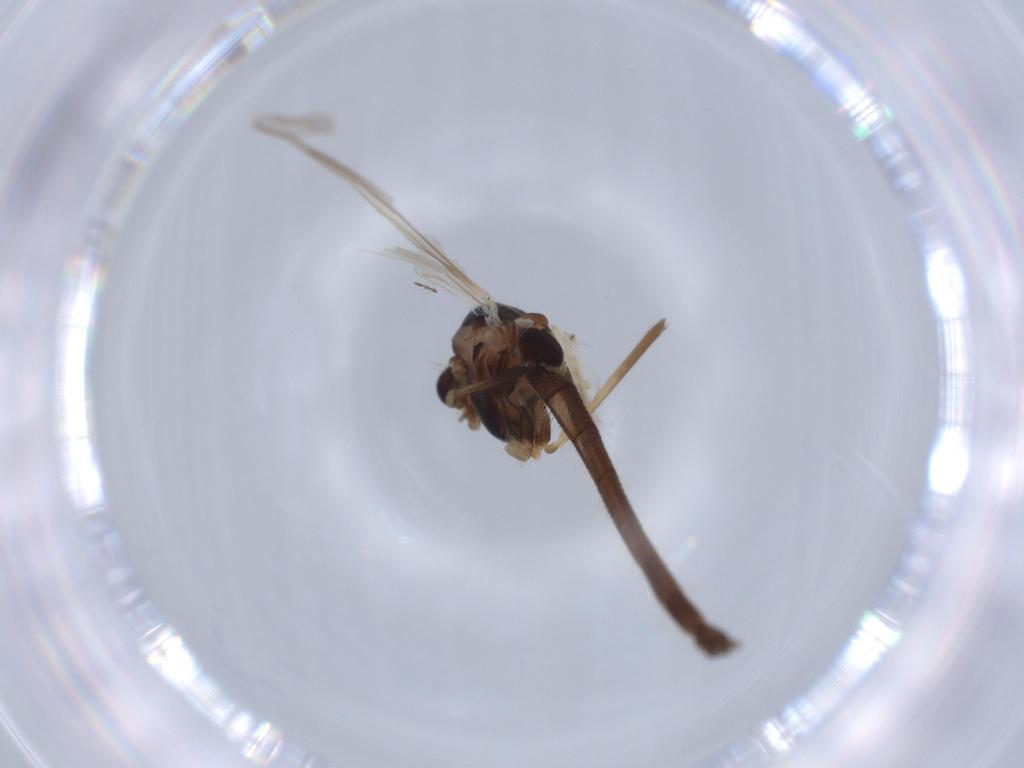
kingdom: Animalia
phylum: Arthropoda
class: Insecta
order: Diptera
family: Chironomidae
